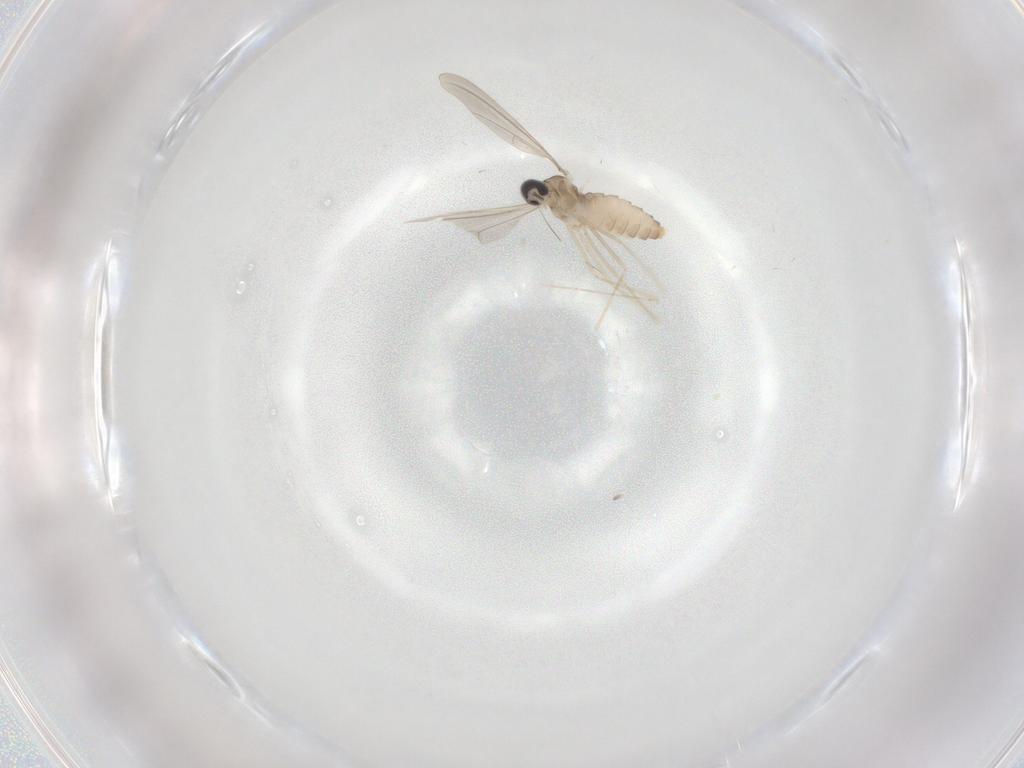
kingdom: Animalia
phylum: Arthropoda
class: Insecta
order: Diptera
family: Cecidomyiidae
